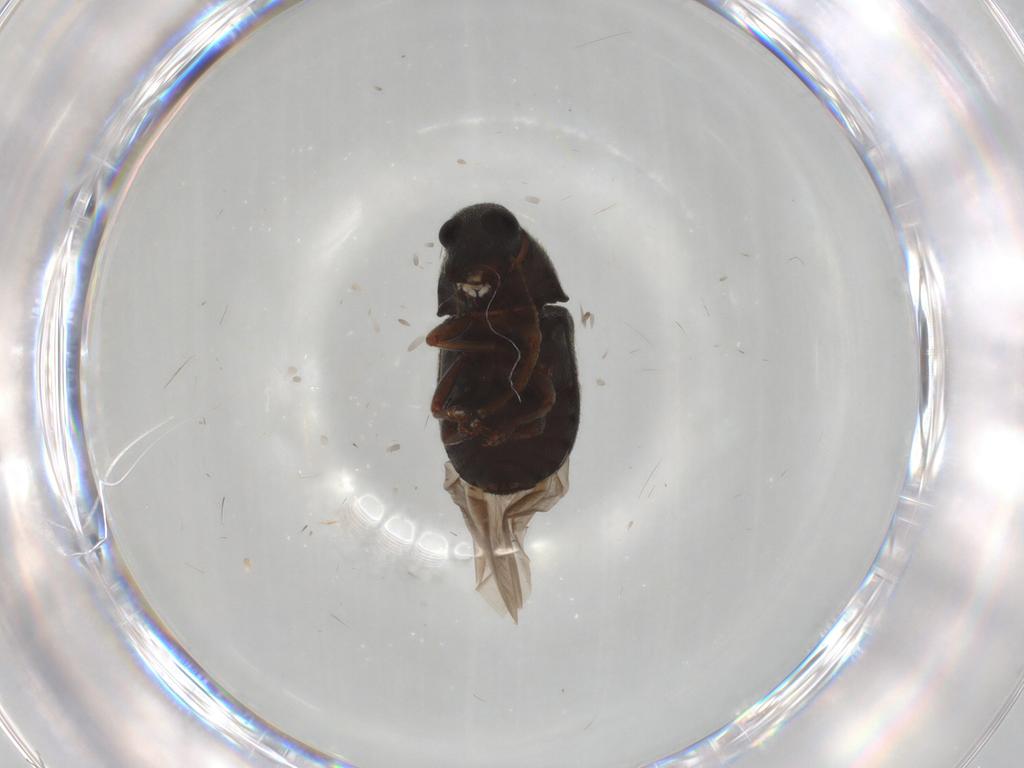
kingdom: Animalia
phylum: Arthropoda
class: Insecta
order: Coleoptera
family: Anthribidae
